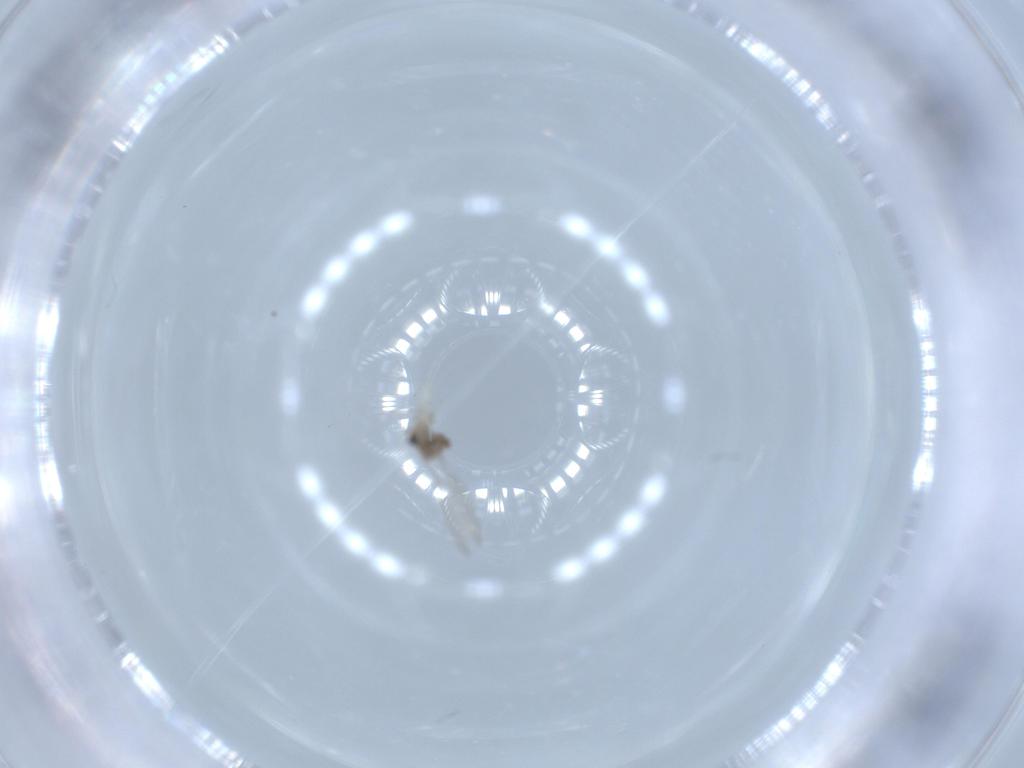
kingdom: Animalia
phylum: Arthropoda
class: Insecta
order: Diptera
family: Cecidomyiidae
